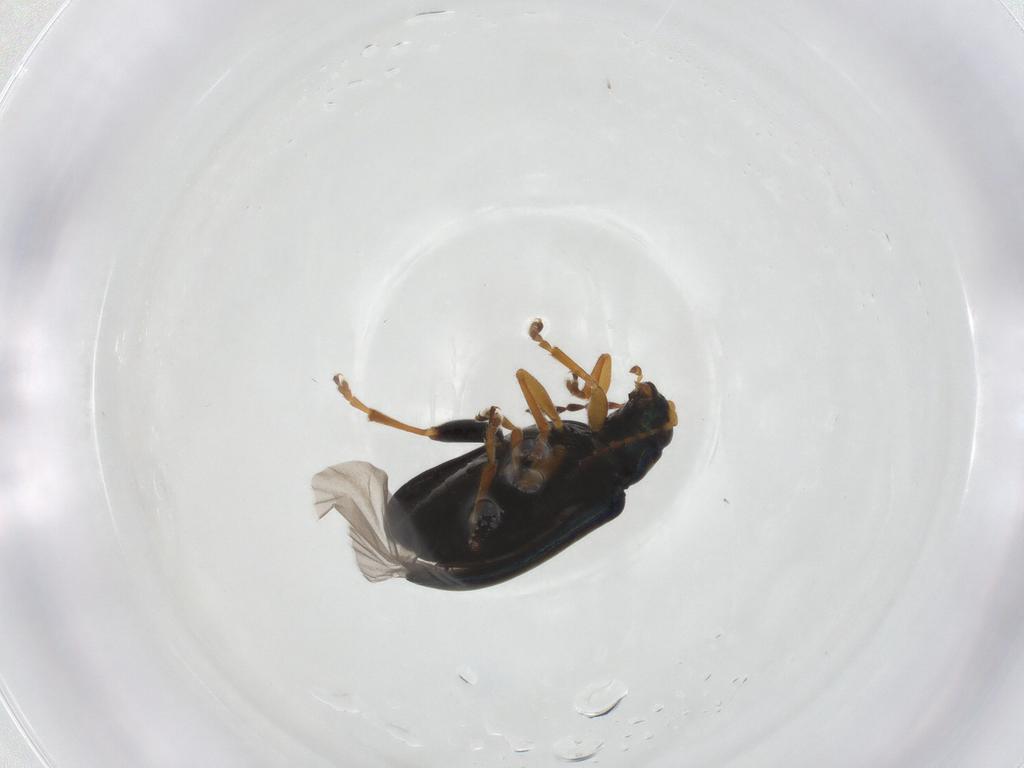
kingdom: Animalia
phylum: Arthropoda
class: Insecta
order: Coleoptera
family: Chrysomelidae
